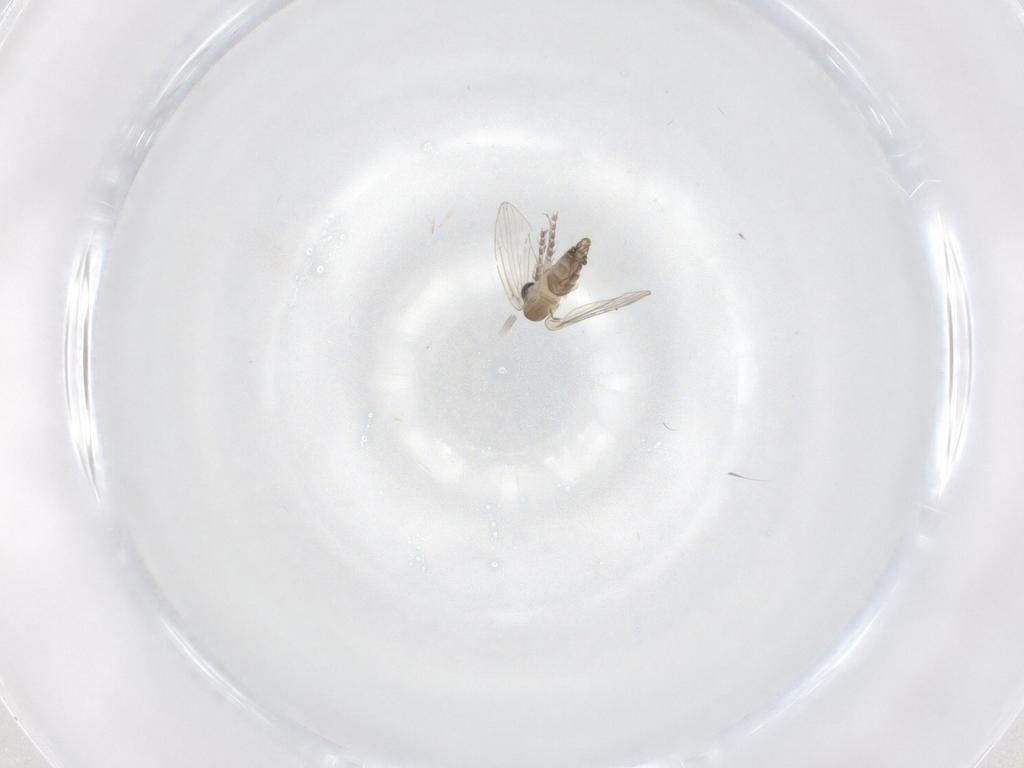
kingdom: Animalia
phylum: Arthropoda
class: Insecta
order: Diptera
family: Psychodidae
